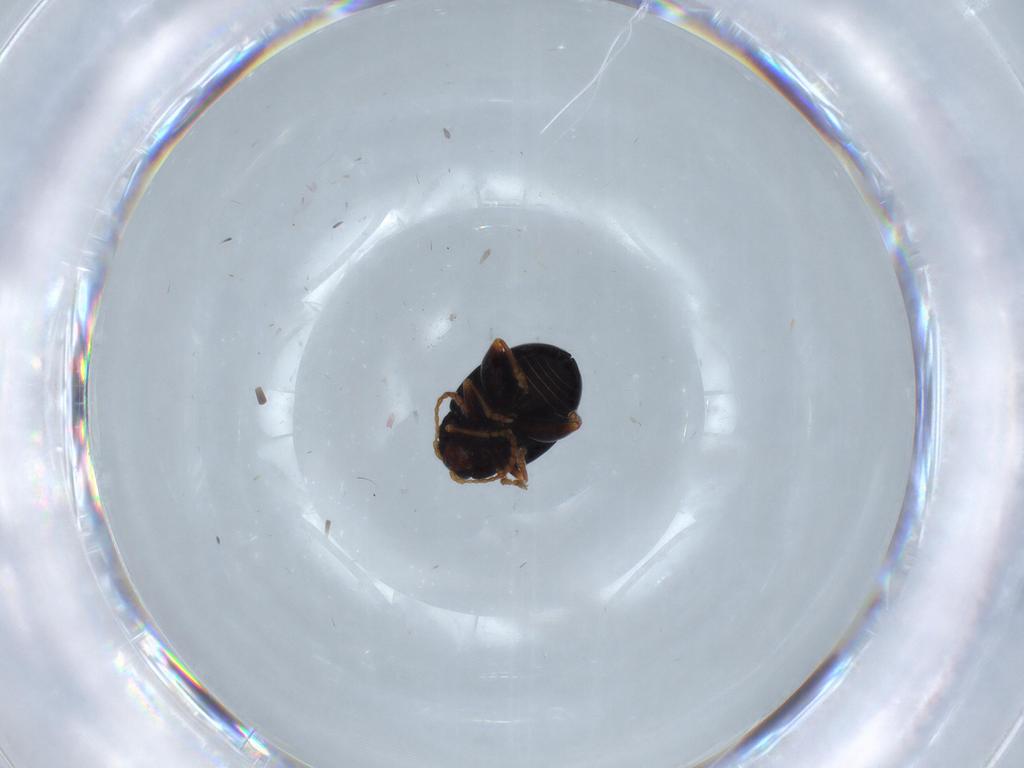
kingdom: Animalia
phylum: Arthropoda
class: Insecta
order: Coleoptera
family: Chrysomelidae
